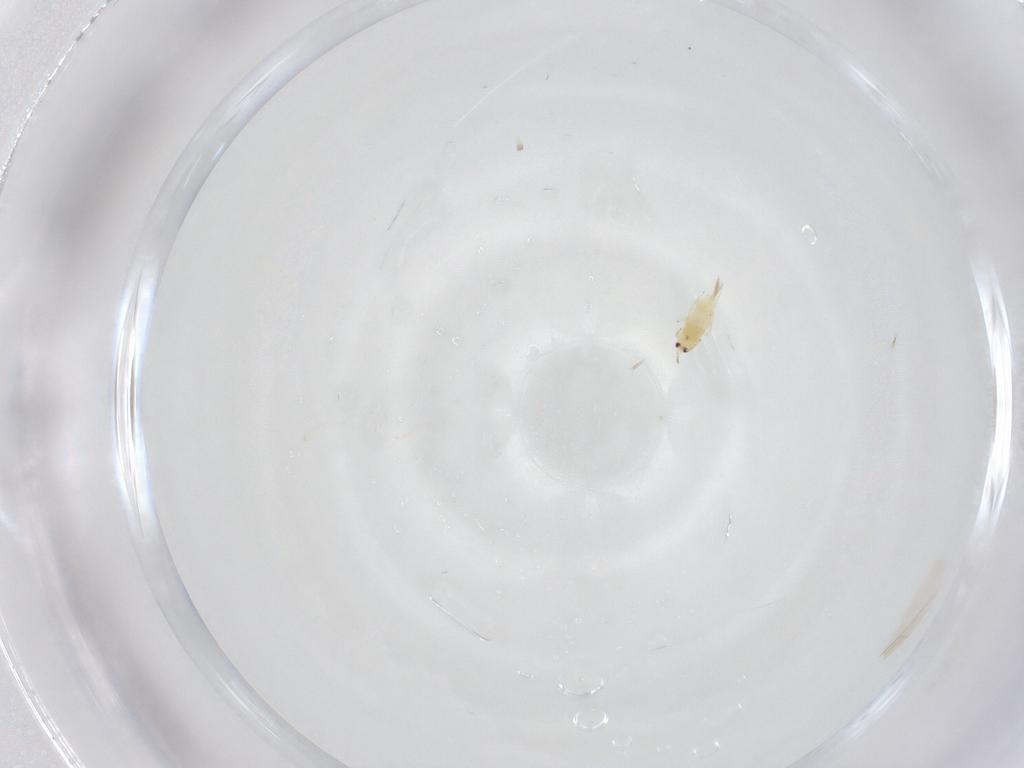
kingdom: Animalia
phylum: Arthropoda
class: Insecta
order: Thysanoptera
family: Thripidae
